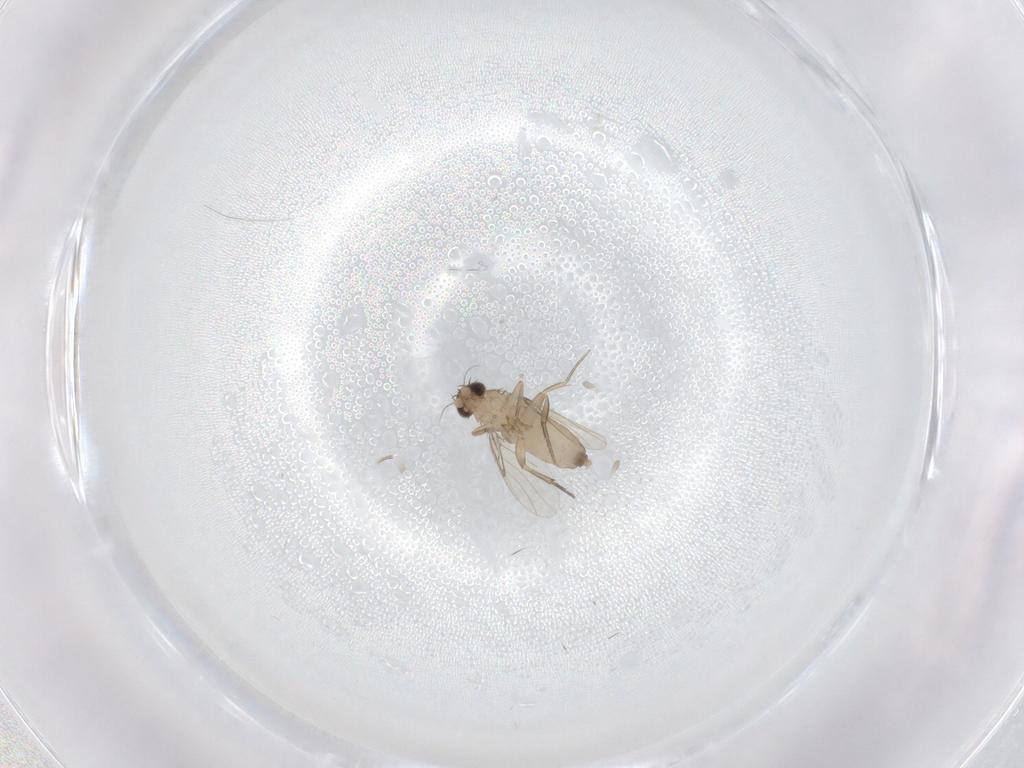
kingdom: Animalia
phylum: Arthropoda
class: Insecta
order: Diptera
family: Phoridae
